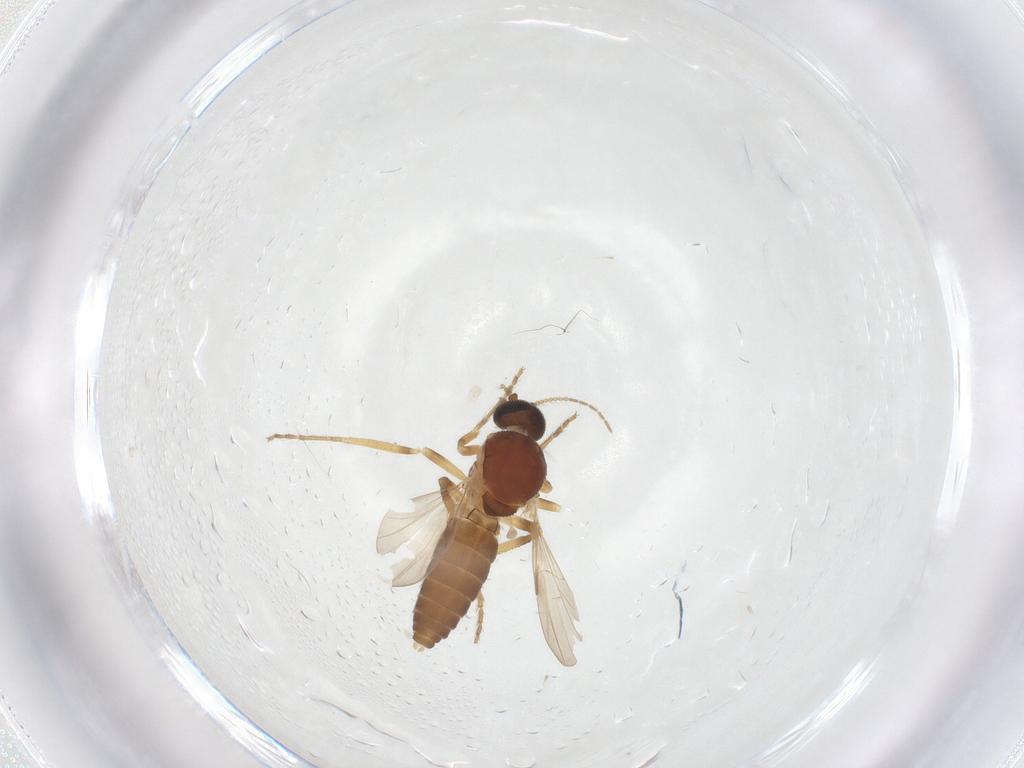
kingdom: Animalia
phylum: Arthropoda
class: Insecta
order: Diptera
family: Ceratopogonidae
